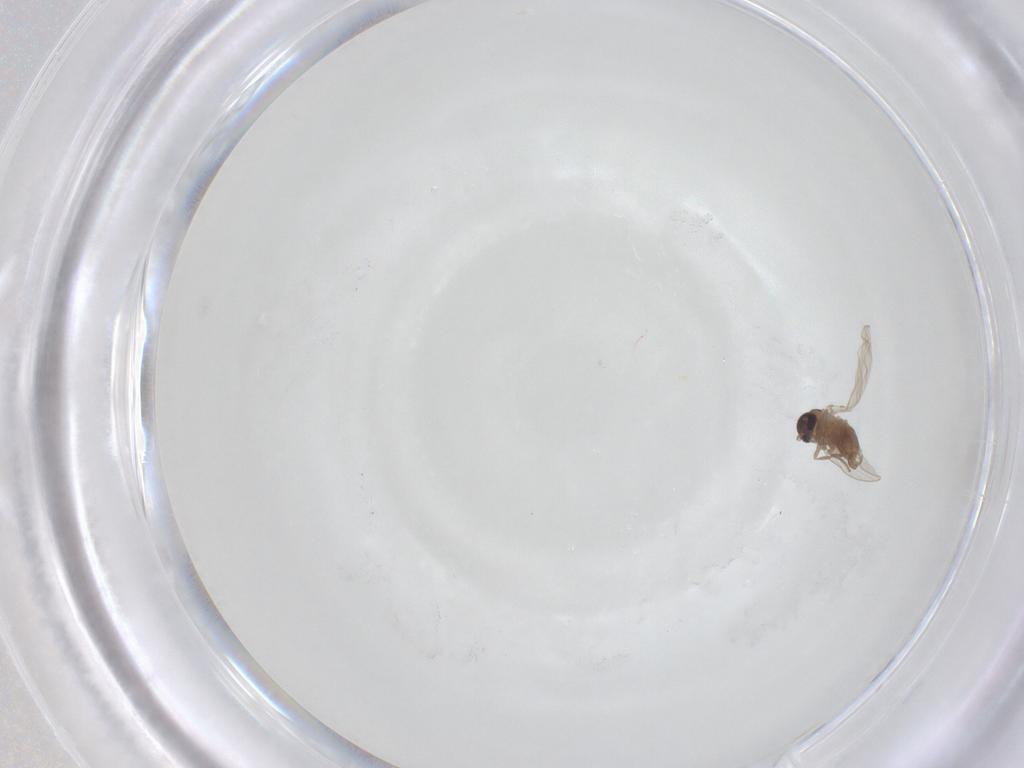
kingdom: Animalia
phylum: Arthropoda
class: Insecta
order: Diptera
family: Psychodidae
